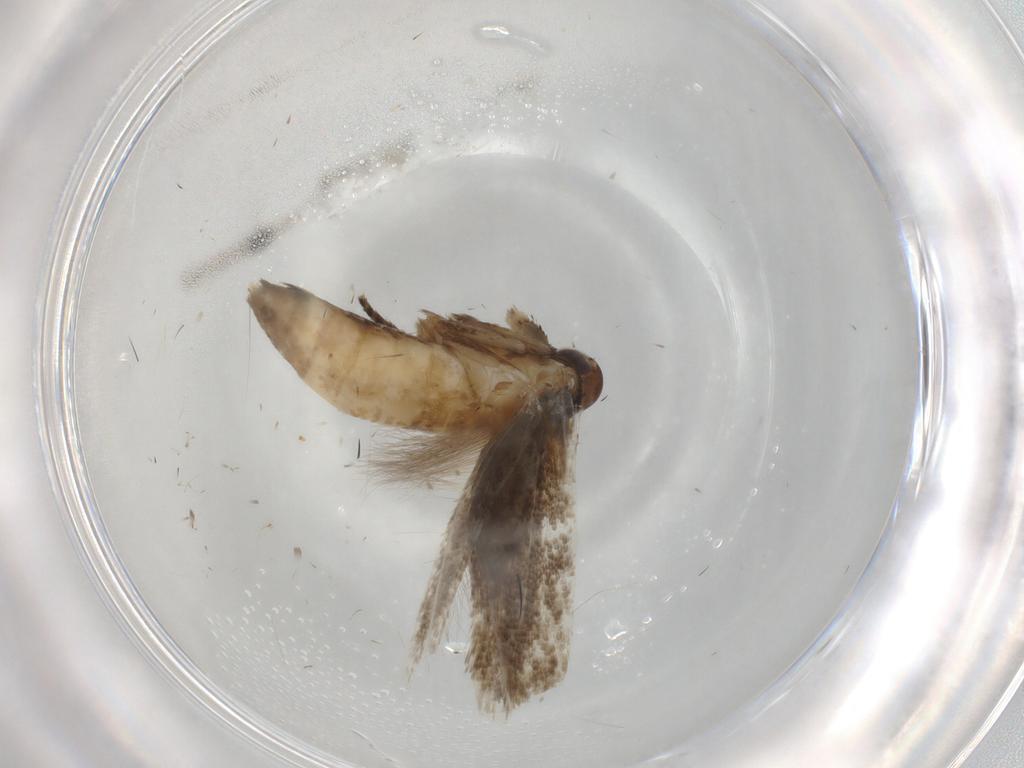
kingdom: Animalia
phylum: Arthropoda
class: Insecta
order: Lepidoptera
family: Cosmopterigidae
